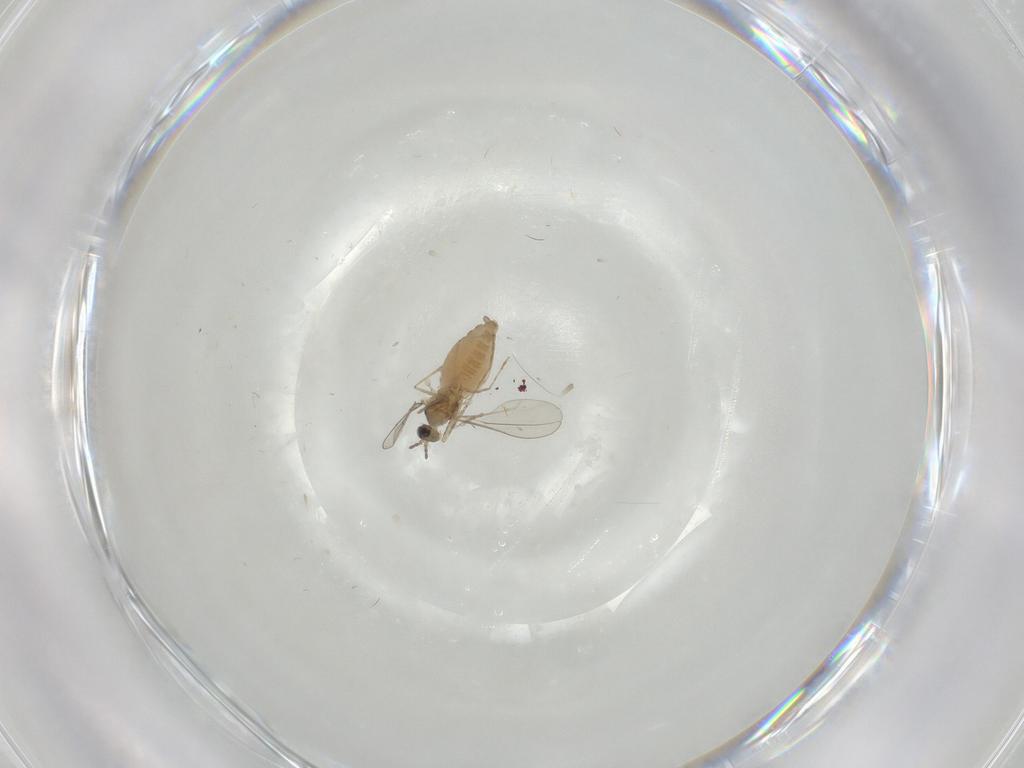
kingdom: Animalia
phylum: Arthropoda
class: Insecta
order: Diptera
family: Cecidomyiidae
